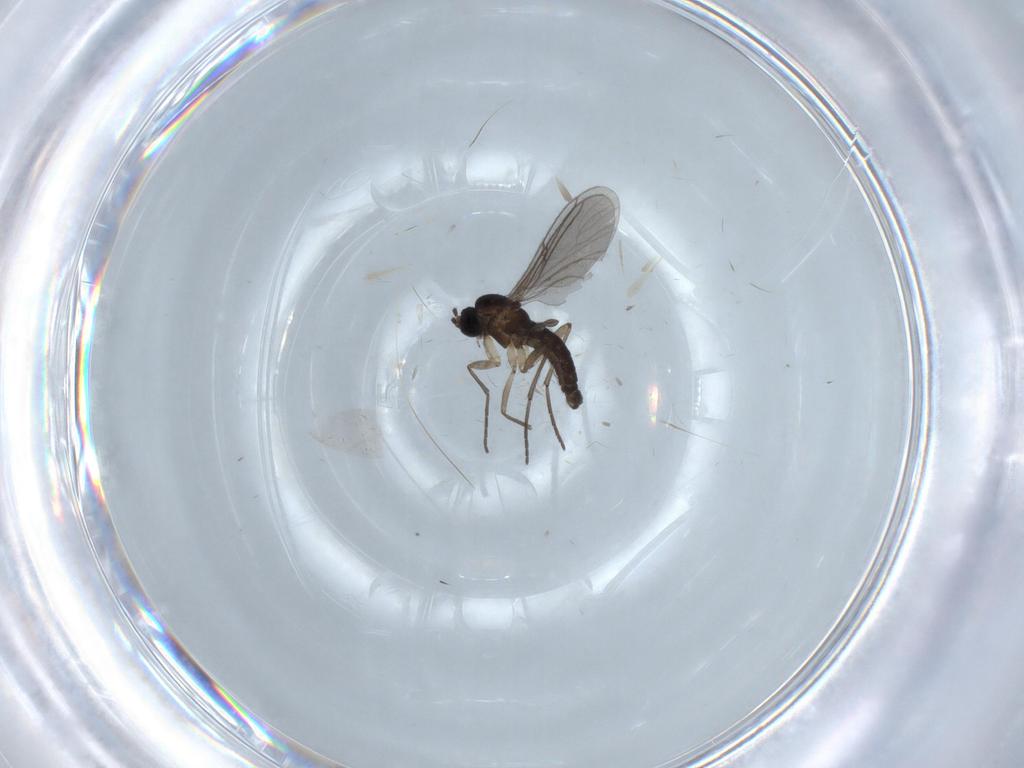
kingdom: Animalia
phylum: Arthropoda
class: Insecta
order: Diptera
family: Sciaridae
